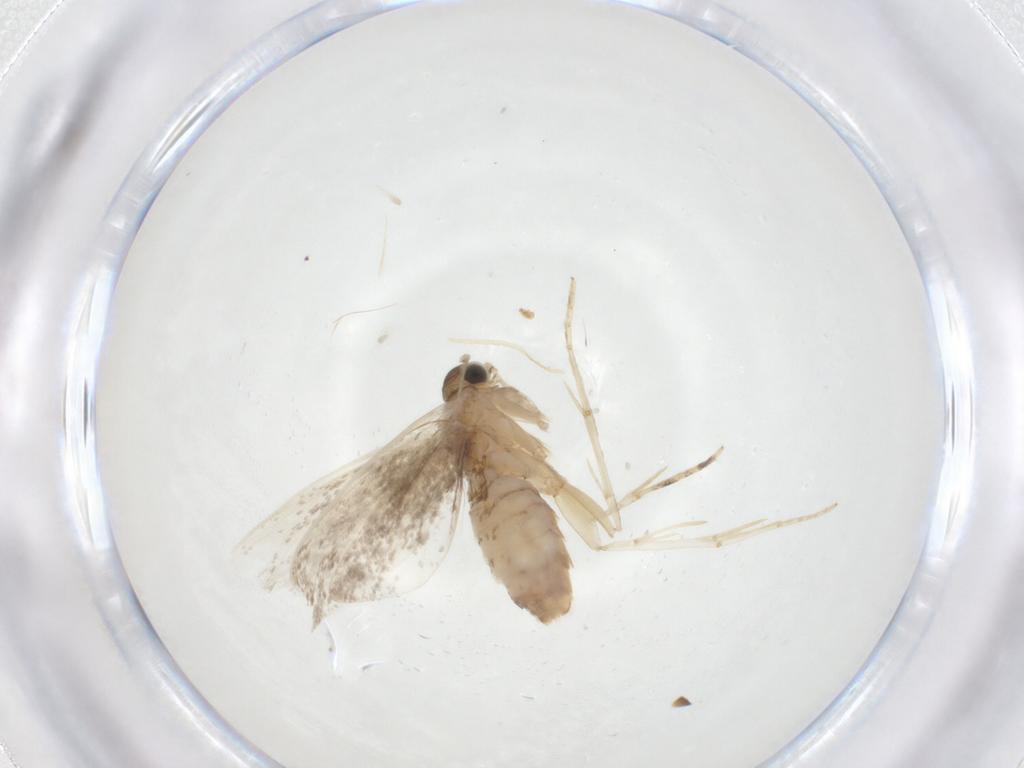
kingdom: Animalia
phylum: Arthropoda
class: Insecta
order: Lepidoptera
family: Tineidae
